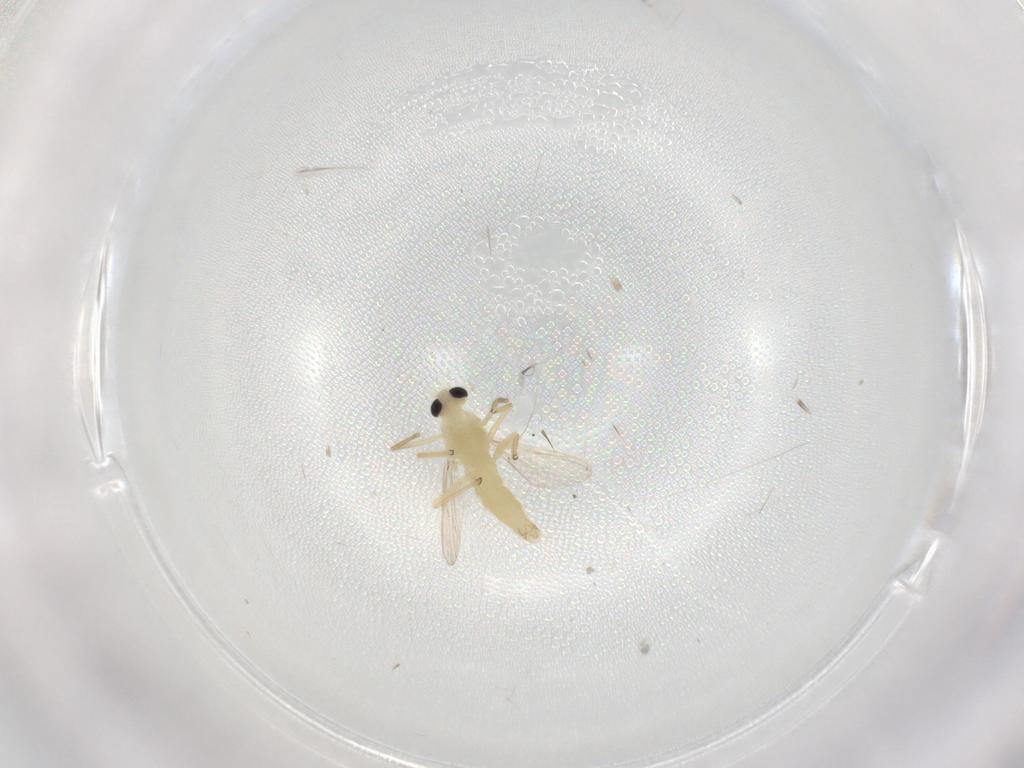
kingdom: Animalia
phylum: Arthropoda
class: Insecta
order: Diptera
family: Chironomidae
